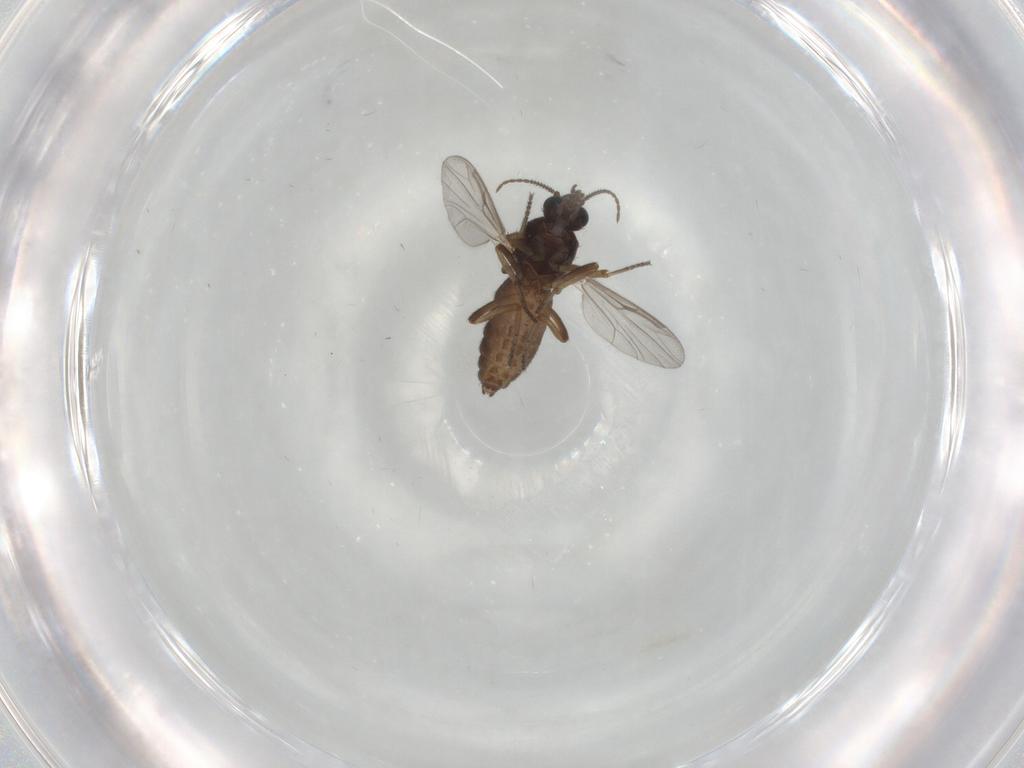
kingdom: Animalia
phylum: Arthropoda
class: Insecta
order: Diptera
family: Ceratopogonidae
